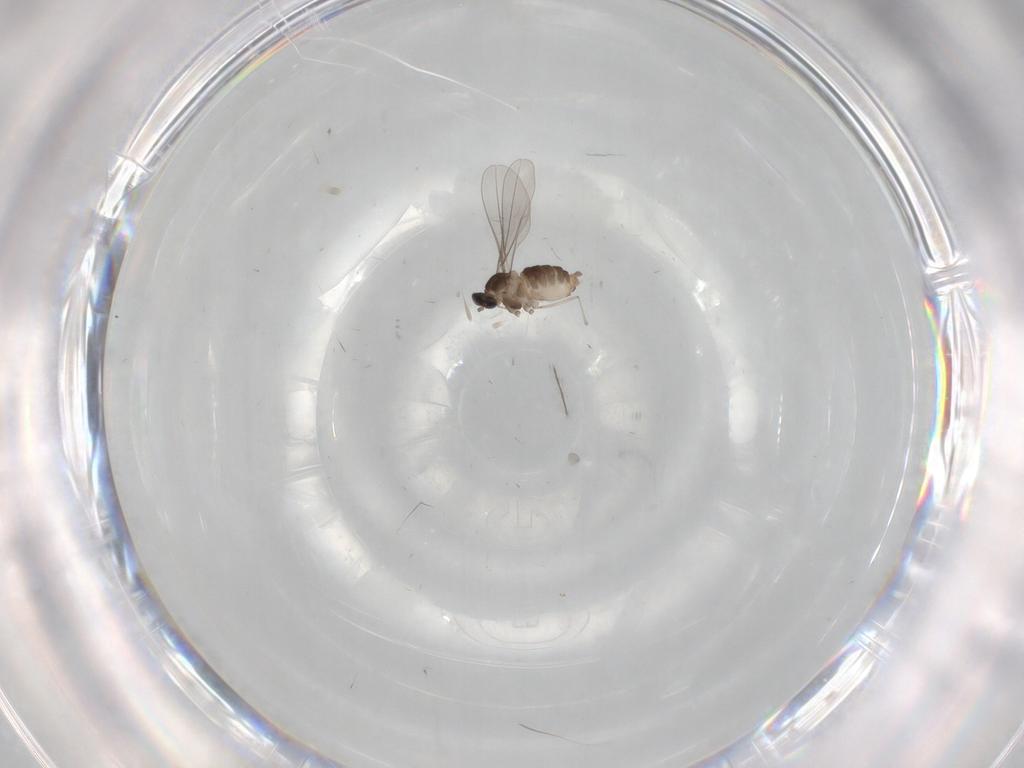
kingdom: Animalia
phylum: Arthropoda
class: Insecta
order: Diptera
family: Cecidomyiidae
